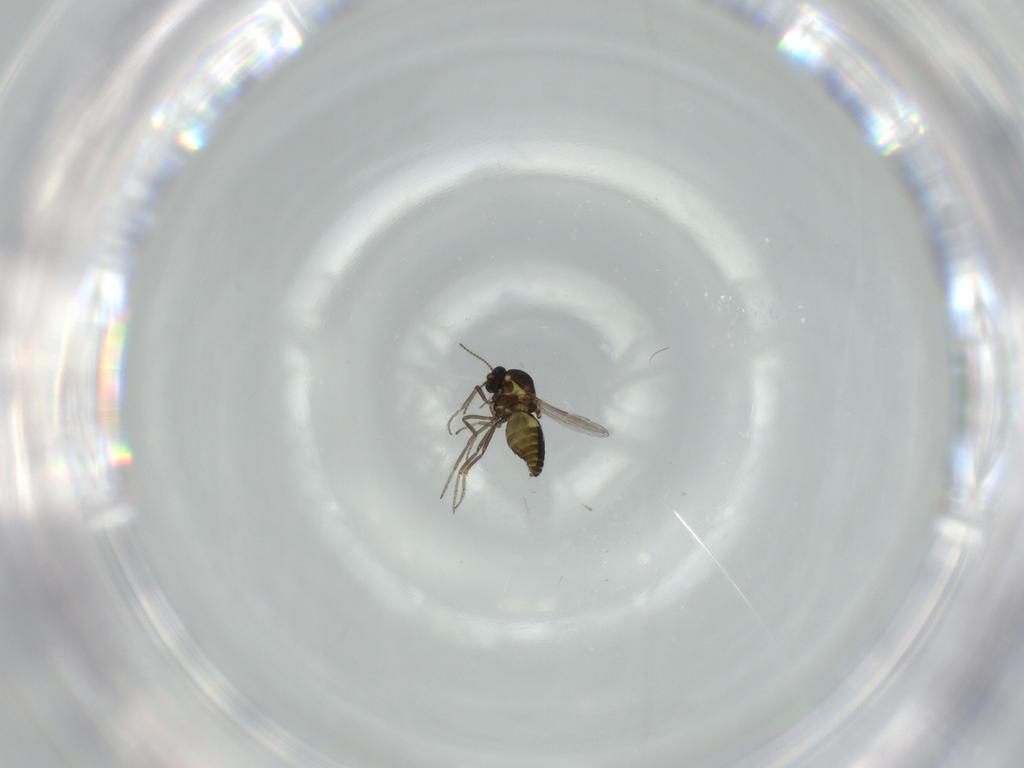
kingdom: Animalia
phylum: Arthropoda
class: Insecta
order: Diptera
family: Ceratopogonidae
